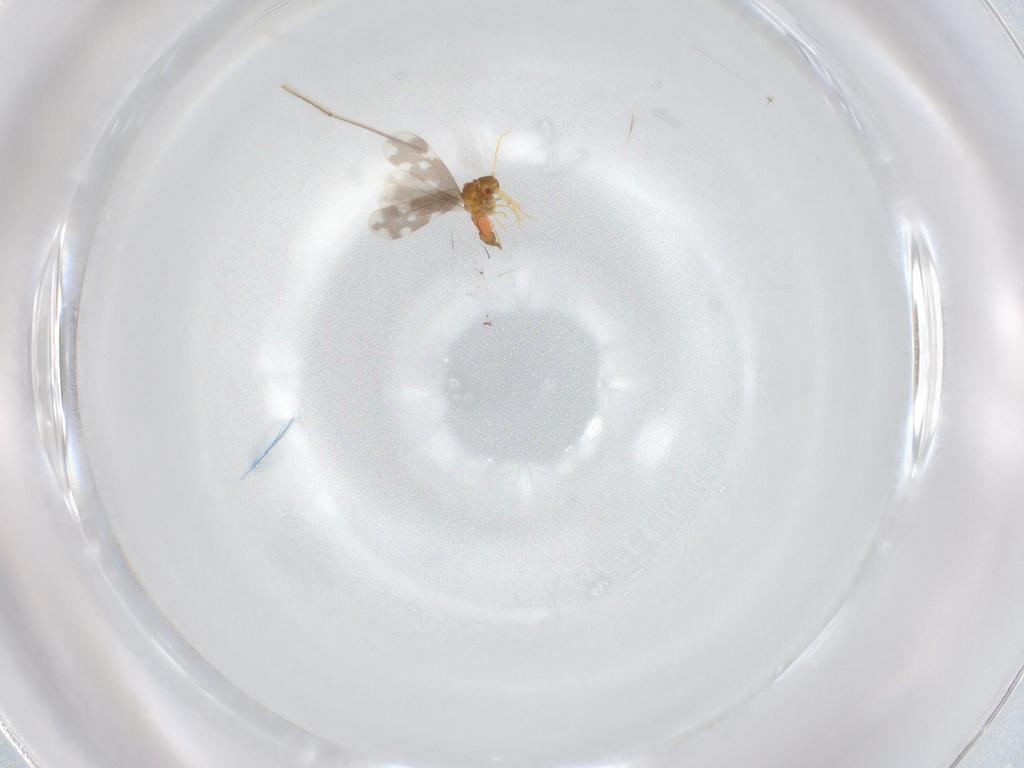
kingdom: Animalia
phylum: Arthropoda
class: Insecta
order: Hemiptera
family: Aleyrodidae
